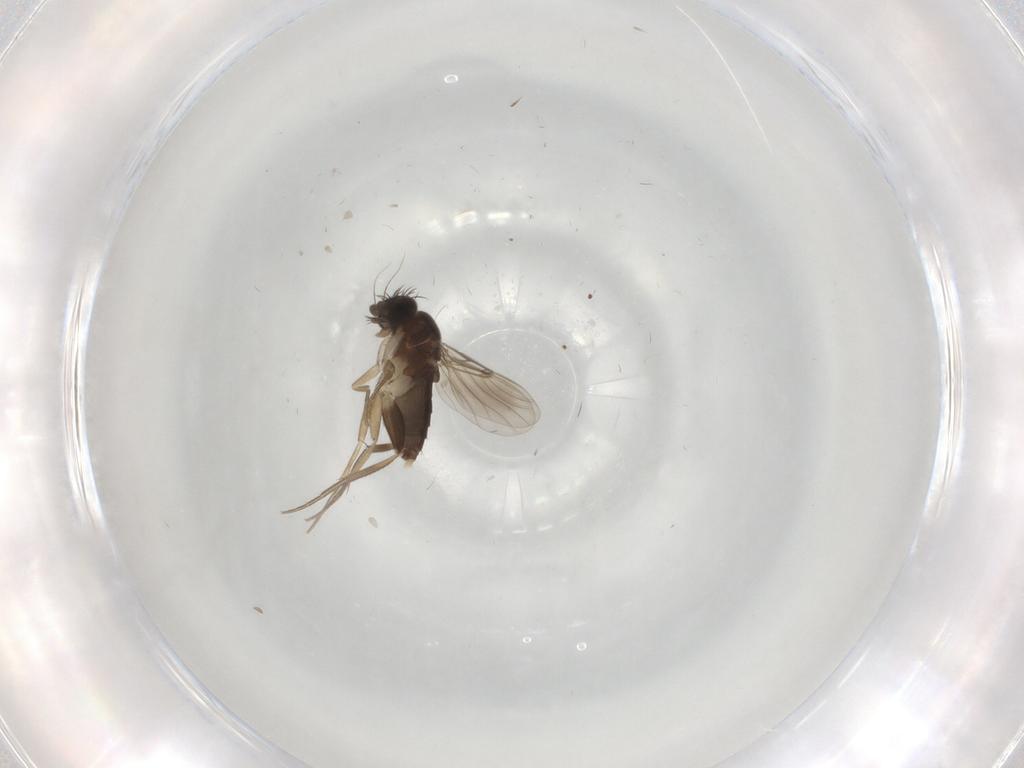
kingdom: Animalia
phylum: Arthropoda
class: Insecta
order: Diptera
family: Phoridae
